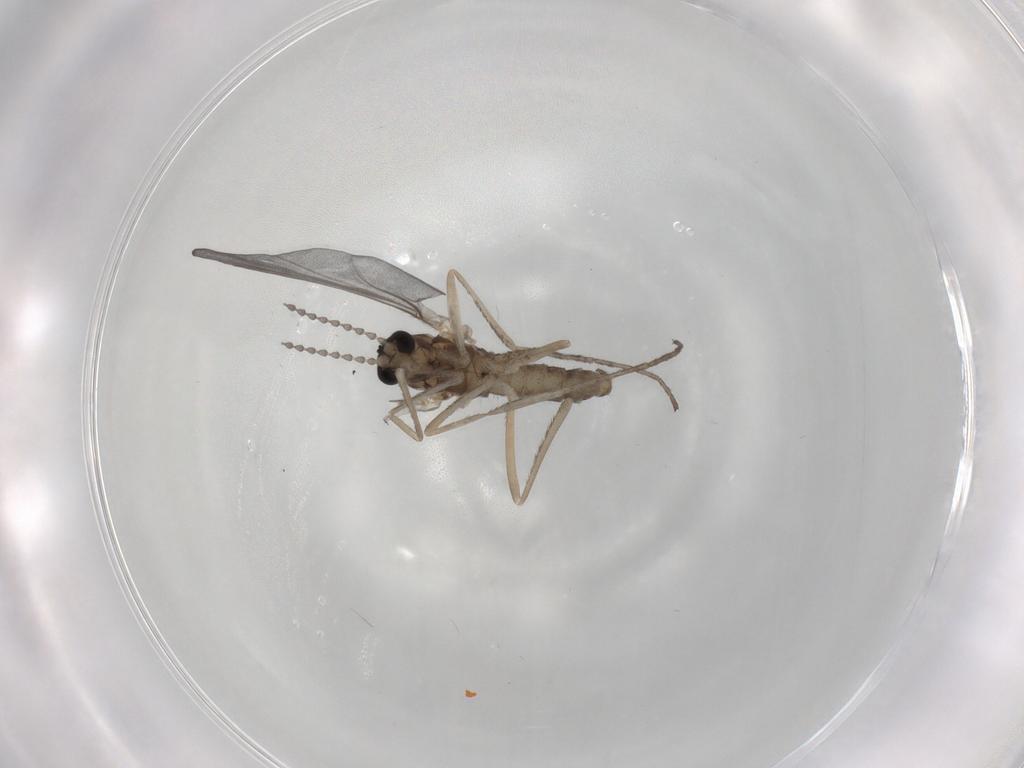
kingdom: Animalia
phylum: Arthropoda
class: Insecta
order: Diptera
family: Cecidomyiidae
